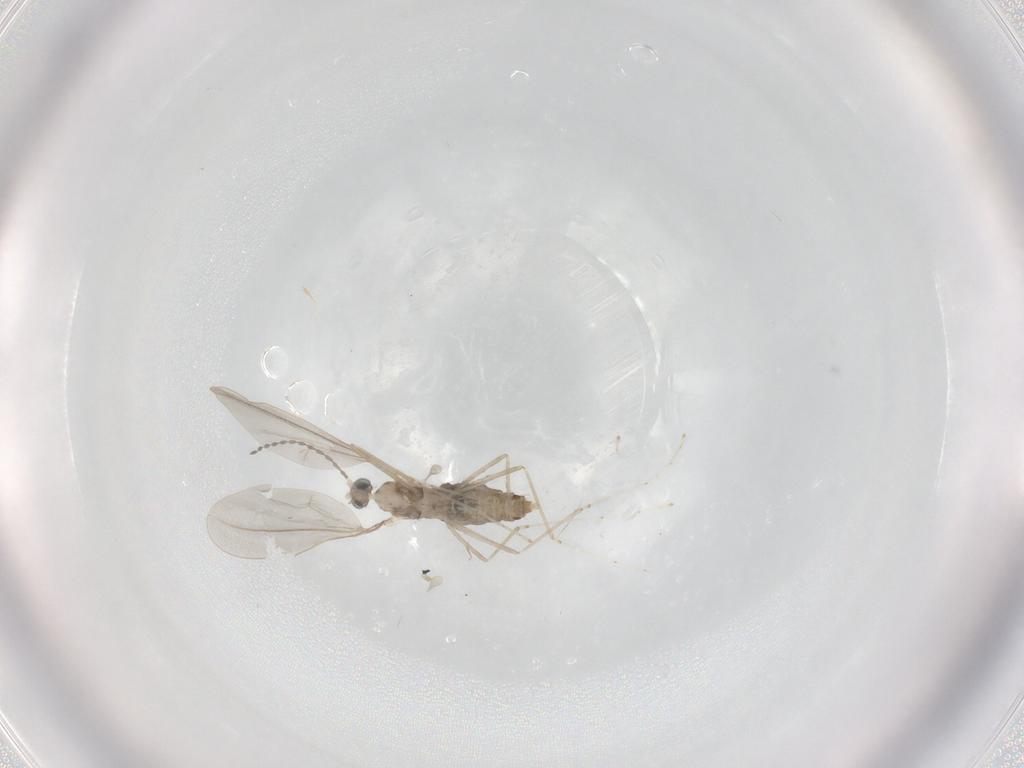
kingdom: Animalia
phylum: Arthropoda
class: Insecta
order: Diptera
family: Cecidomyiidae
